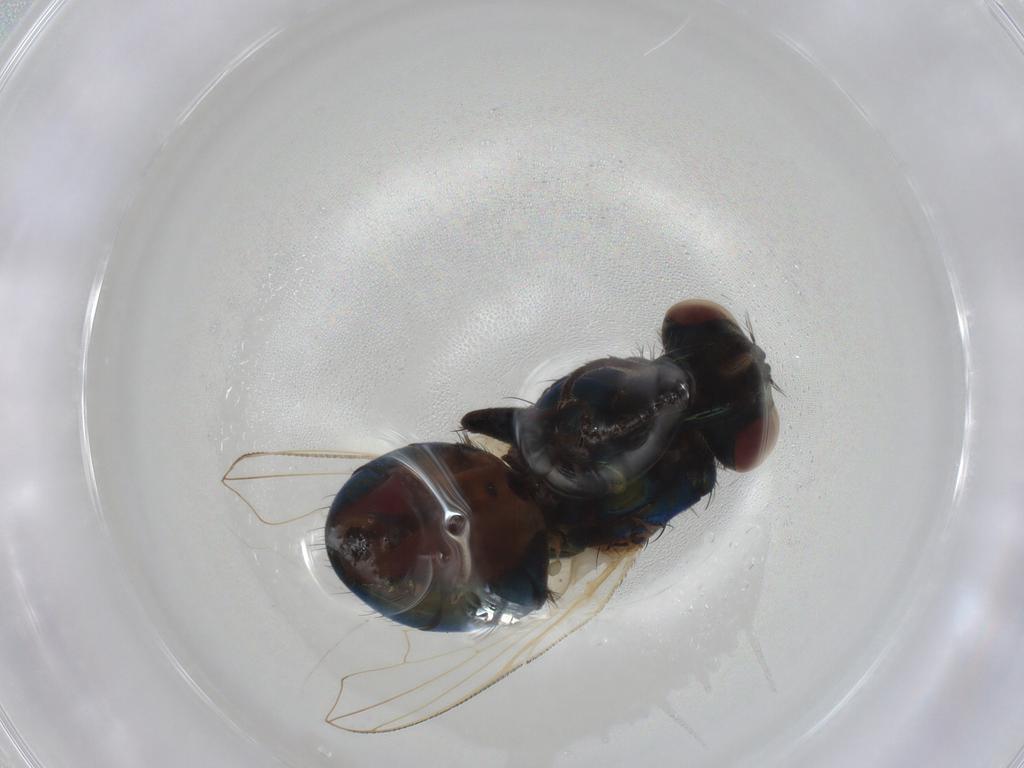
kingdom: Animalia
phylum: Arthropoda
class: Insecta
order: Diptera
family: Muscidae
